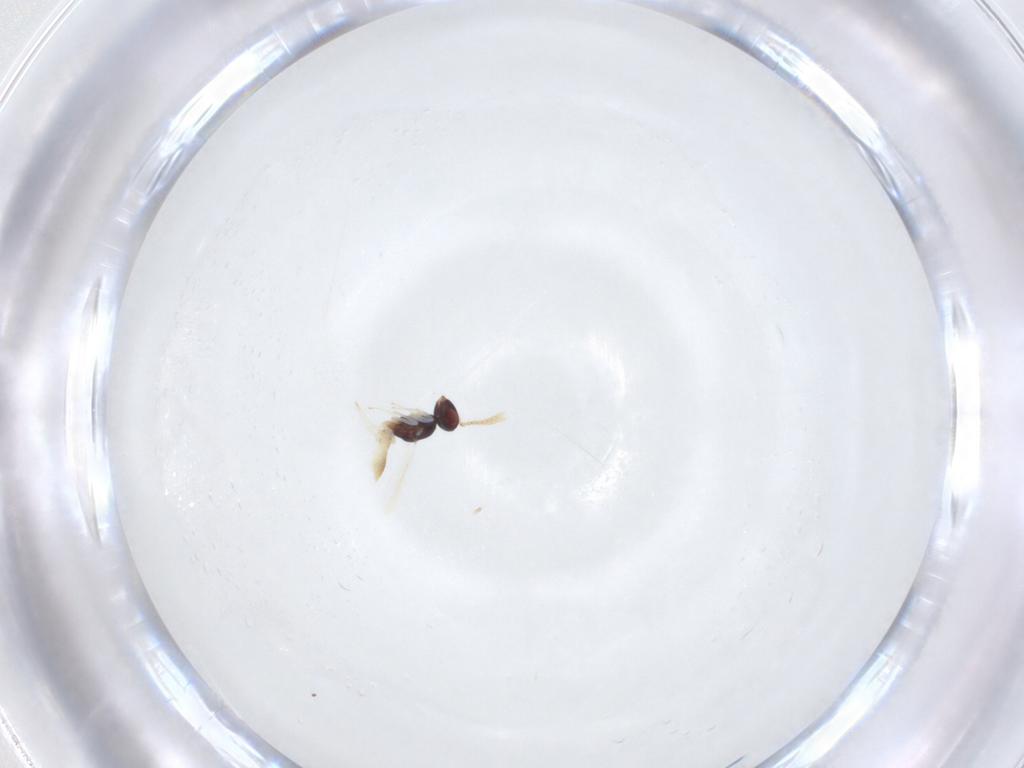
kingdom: Animalia
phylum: Arthropoda
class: Insecta
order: Hymenoptera
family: Pteromalidae
